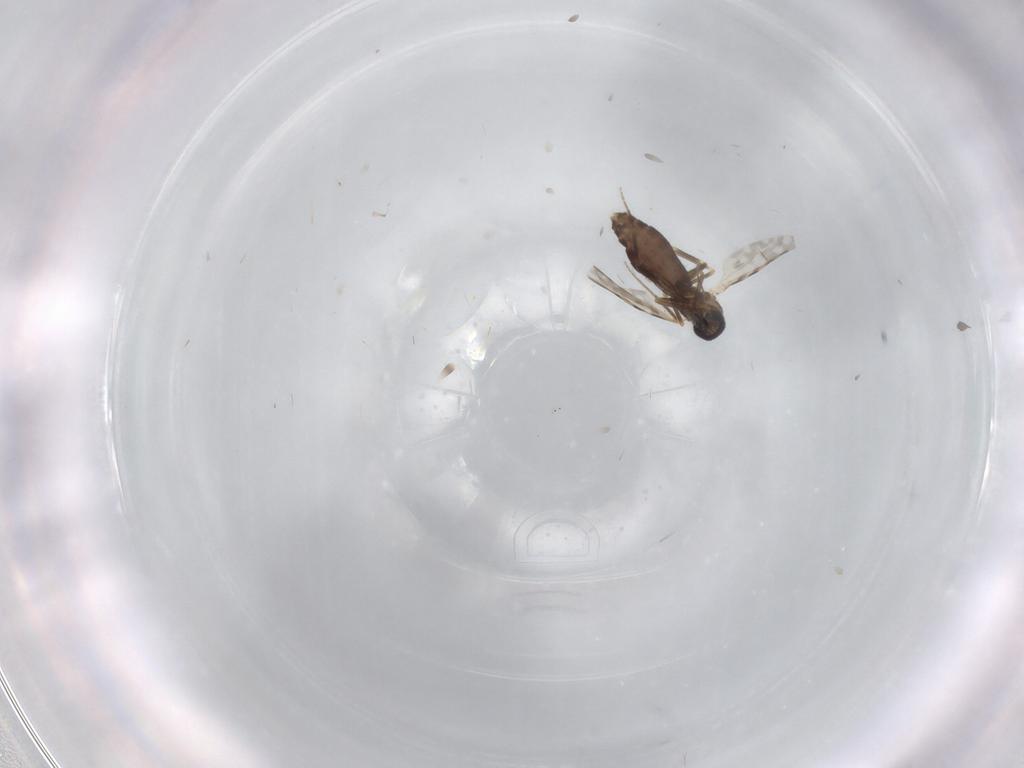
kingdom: Animalia
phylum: Arthropoda
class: Insecta
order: Diptera
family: Ceratopogonidae
